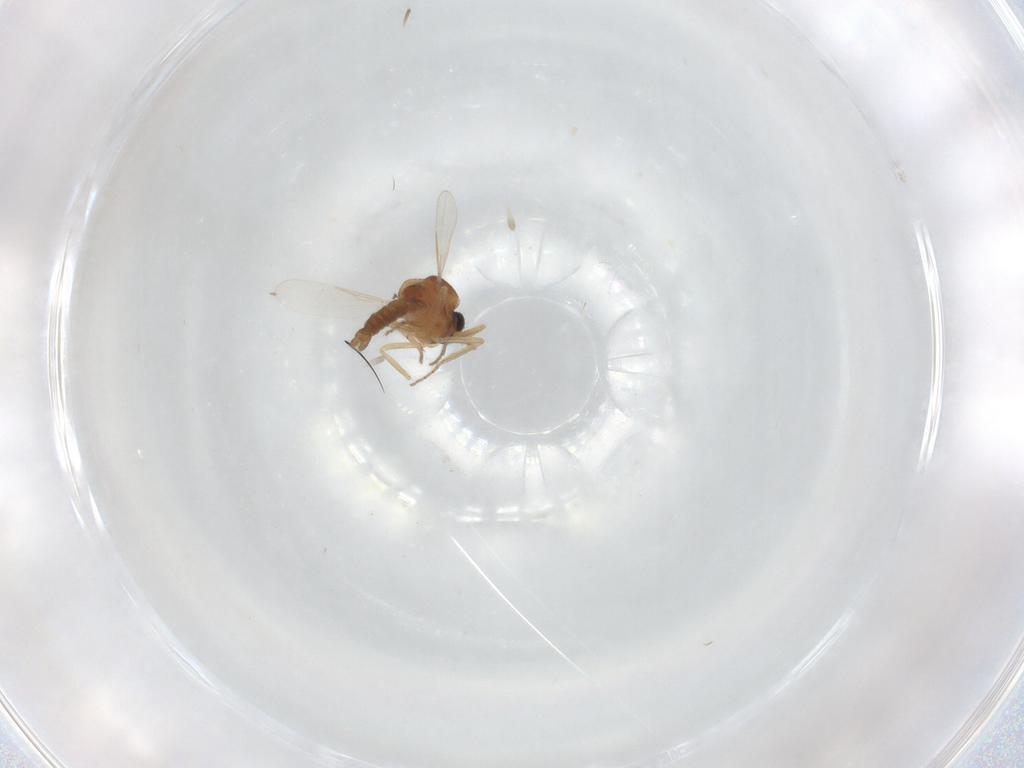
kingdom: Animalia
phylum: Arthropoda
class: Insecta
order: Diptera
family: Ceratopogonidae
